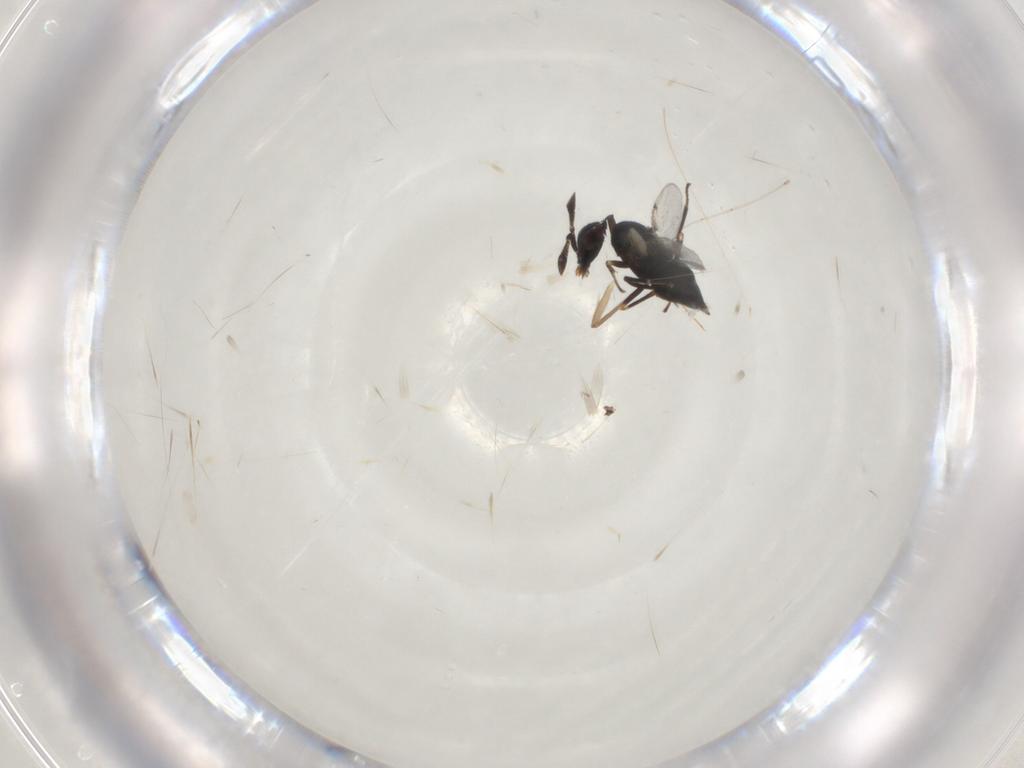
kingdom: Animalia
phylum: Arthropoda
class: Insecta
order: Hymenoptera
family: Encyrtidae
